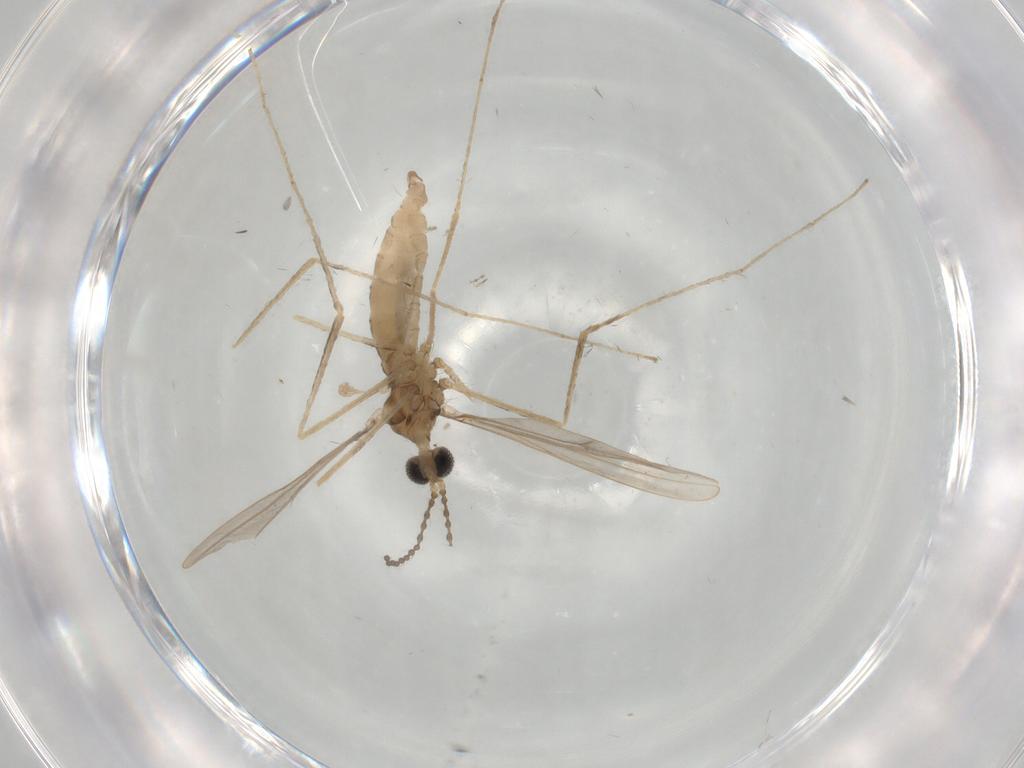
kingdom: Animalia
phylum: Arthropoda
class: Insecta
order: Diptera
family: Cecidomyiidae
